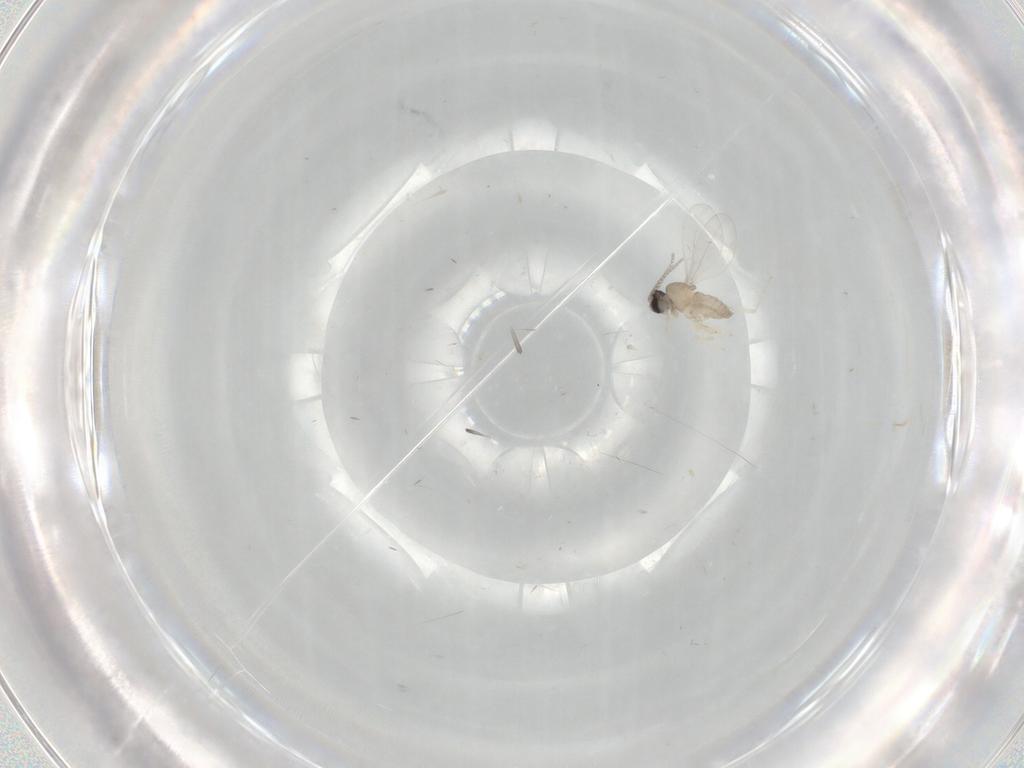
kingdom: Animalia
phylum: Arthropoda
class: Insecta
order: Diptera
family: Cecidomyiidae
